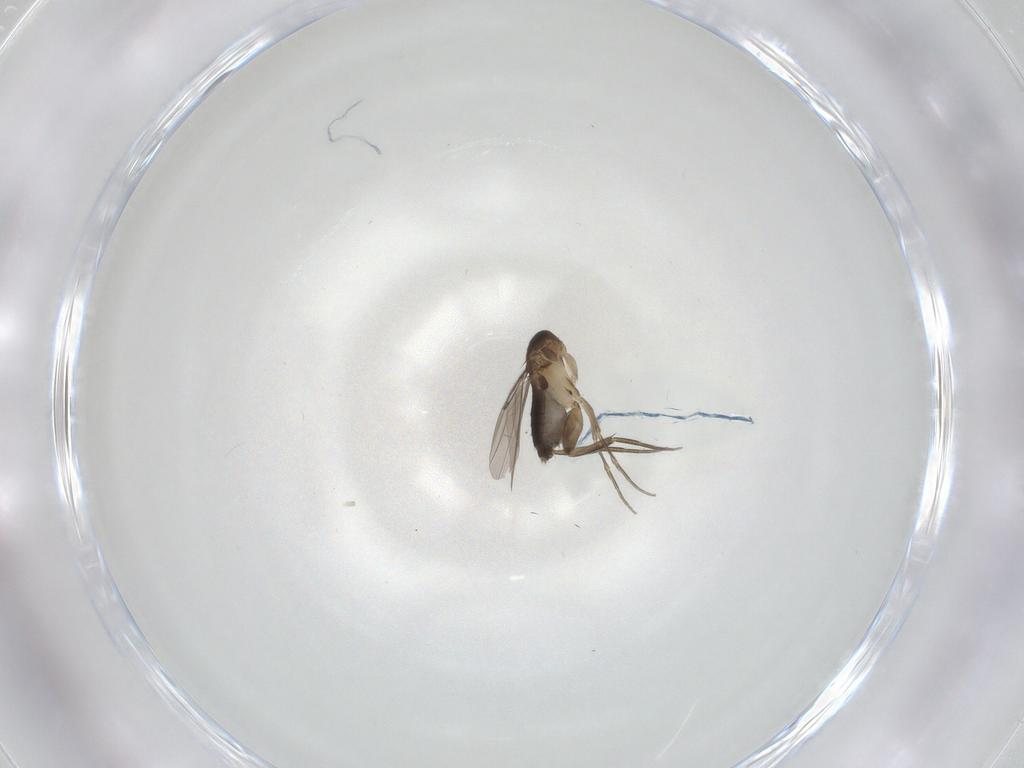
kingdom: Animalia
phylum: Arthropoda
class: Insecta
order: Diptera
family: Phoridae
